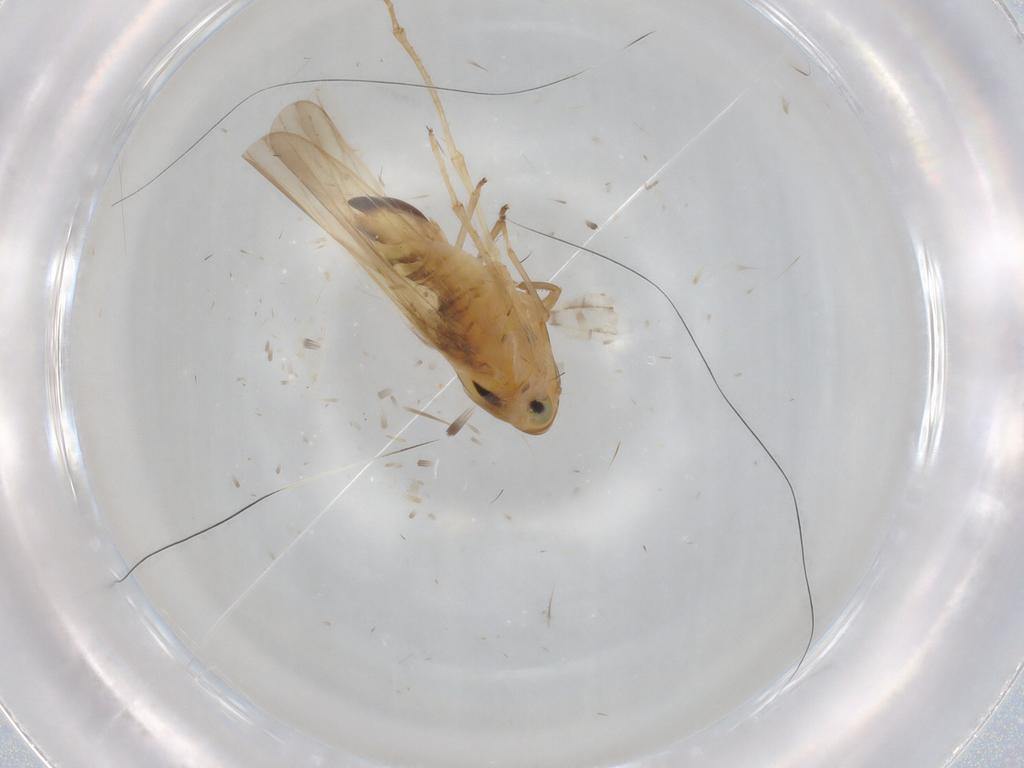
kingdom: Animalia
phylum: Arthropoda
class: Insecta
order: Hemiptera
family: Cicadellidae
